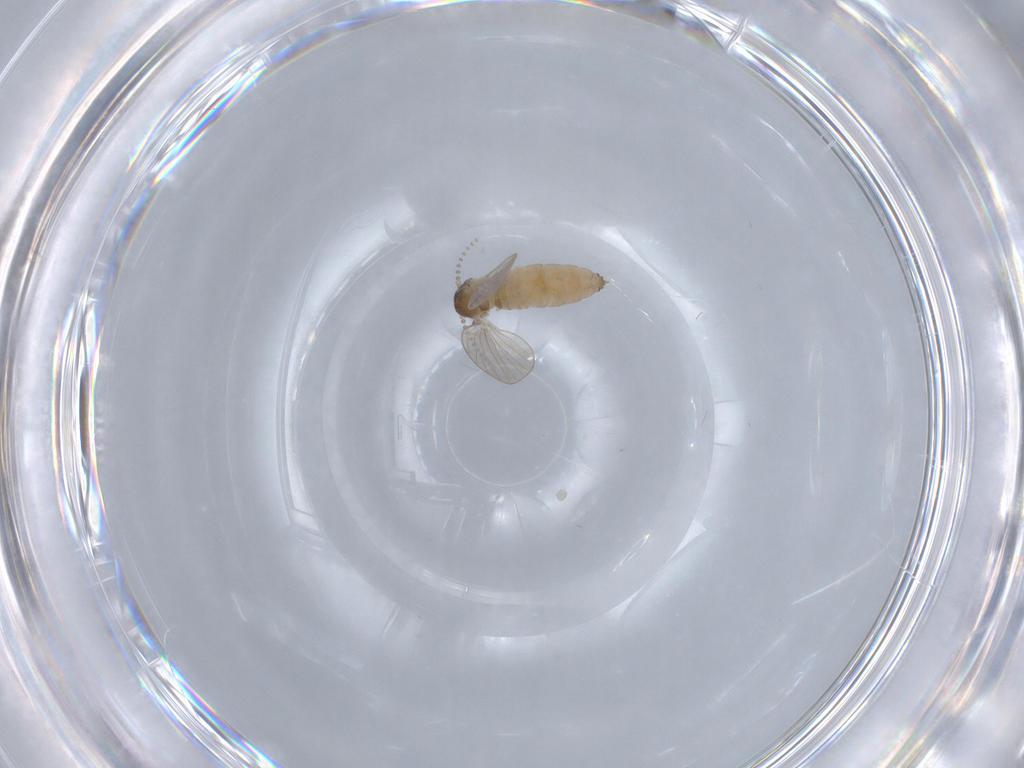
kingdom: Animalia
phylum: Arthropoda
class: Insecta
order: Diptera
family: Psychodidae
